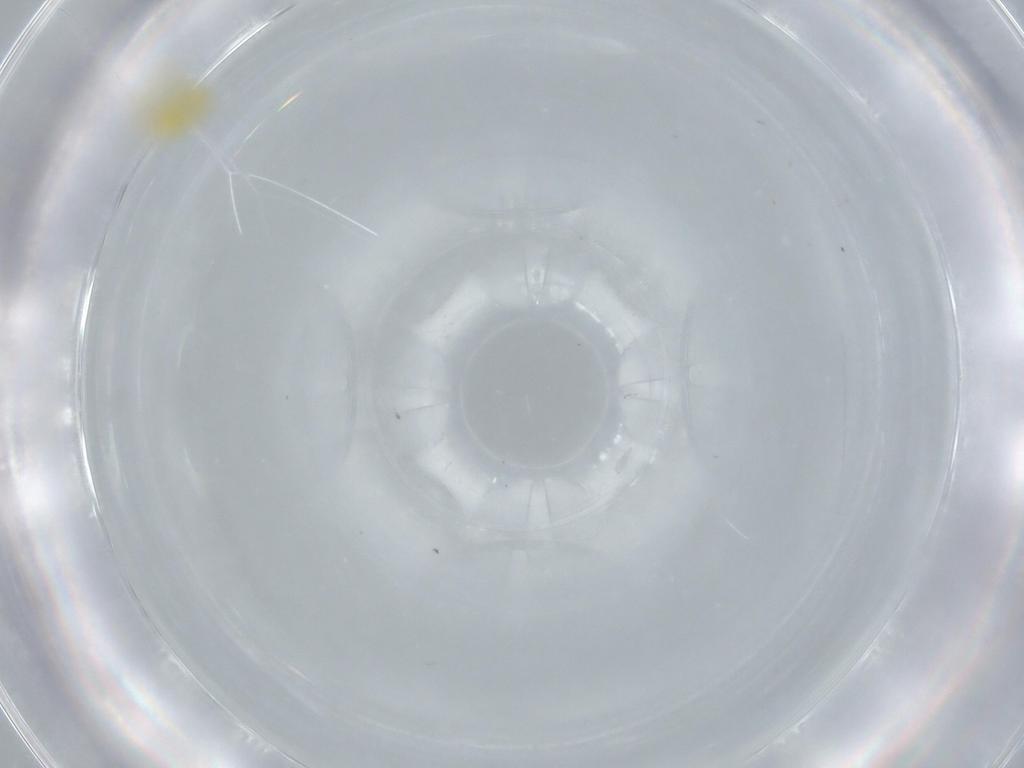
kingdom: Animalia
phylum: Arthropoda
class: Insecta
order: Hemiptera
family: Aleyrodidae
